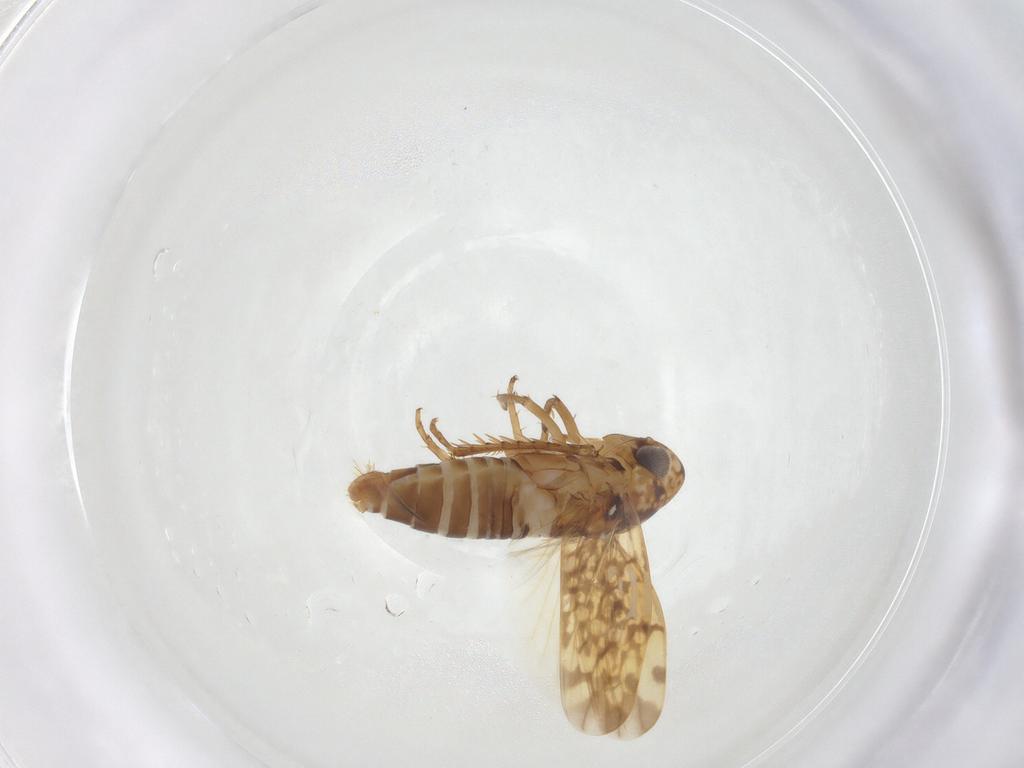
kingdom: Animalia
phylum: Arthropoda
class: Insecta
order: Hemiptera
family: Cicadellidae
